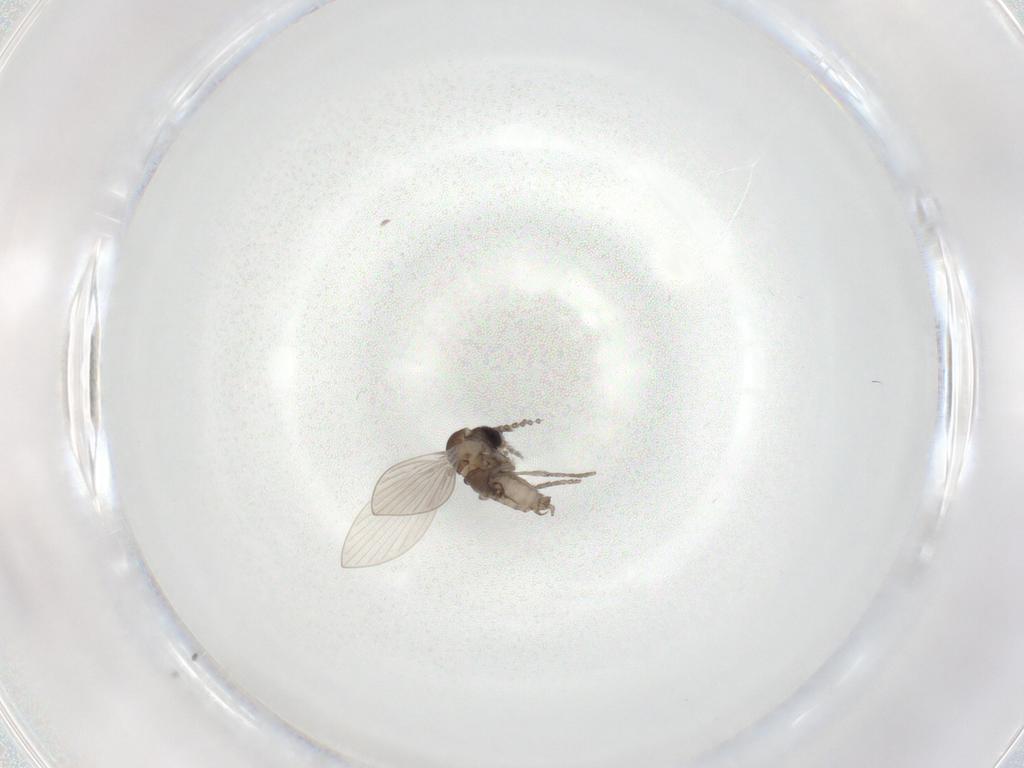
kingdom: Animalia
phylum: Arthropoda
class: Insecta
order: Diptera
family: Psychodidae
